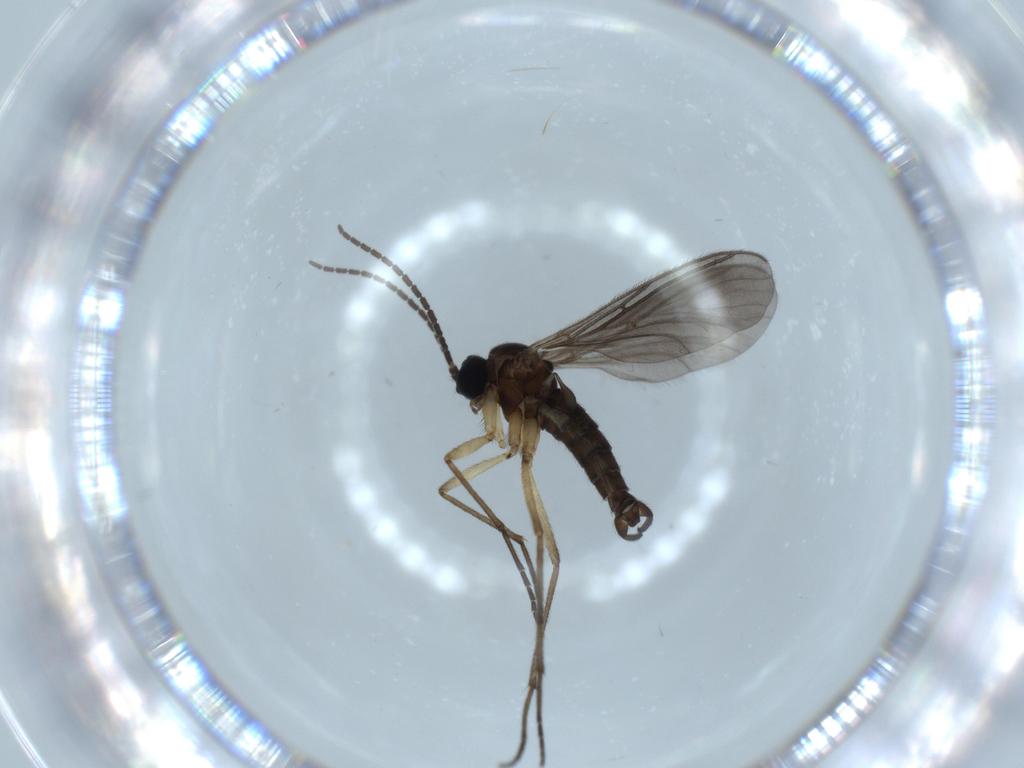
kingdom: Animalia
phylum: Arthropoda
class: Insecta
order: Diptera
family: Sciaridae
